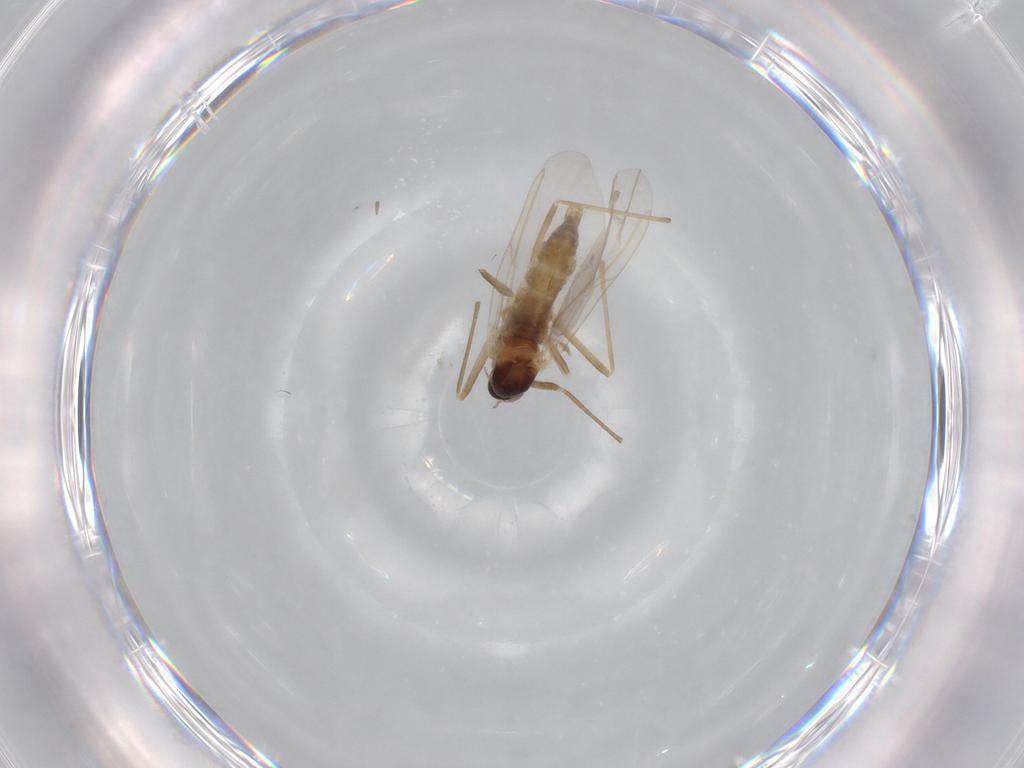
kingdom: Animalia
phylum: Arthropoda
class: Insecta
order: Diptera
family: Cecidomyiidae
